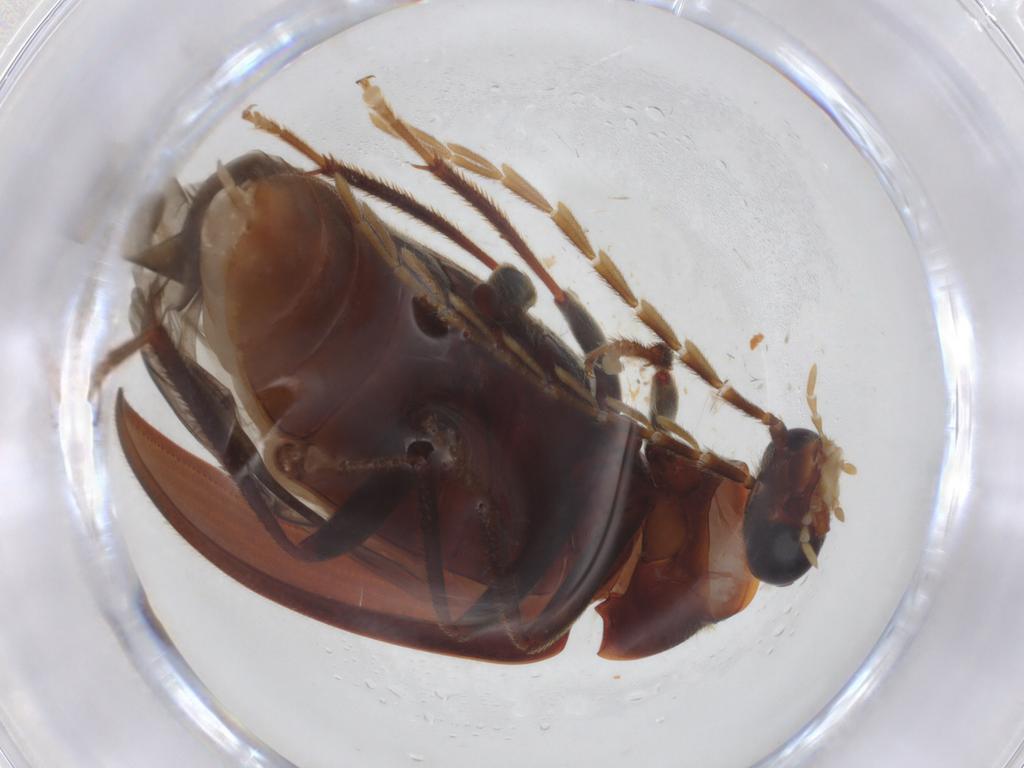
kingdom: Animalia
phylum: Arthropoda
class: Insecta
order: Coleoptera
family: Ptilodactylidae
